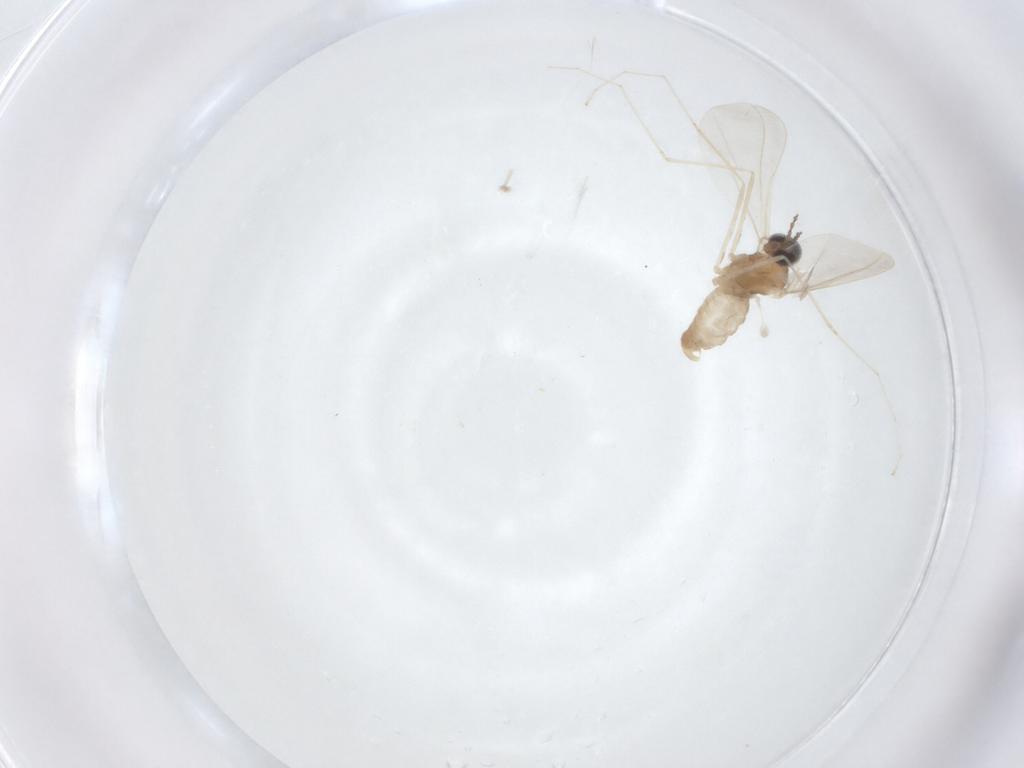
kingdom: Animalia
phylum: Arthropoda
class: Insecta
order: Diptera
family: Cecidomyiidae
